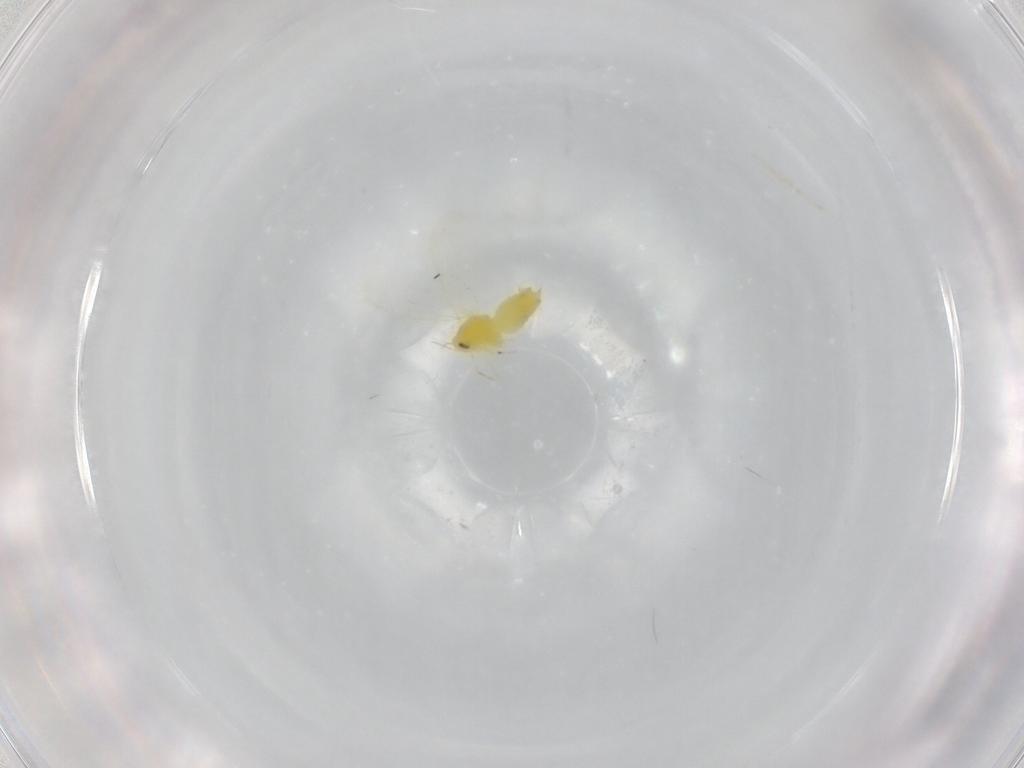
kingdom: Animalia
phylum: Arthropoda
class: Insecta
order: Hemiptera
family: Aleyrodidae
